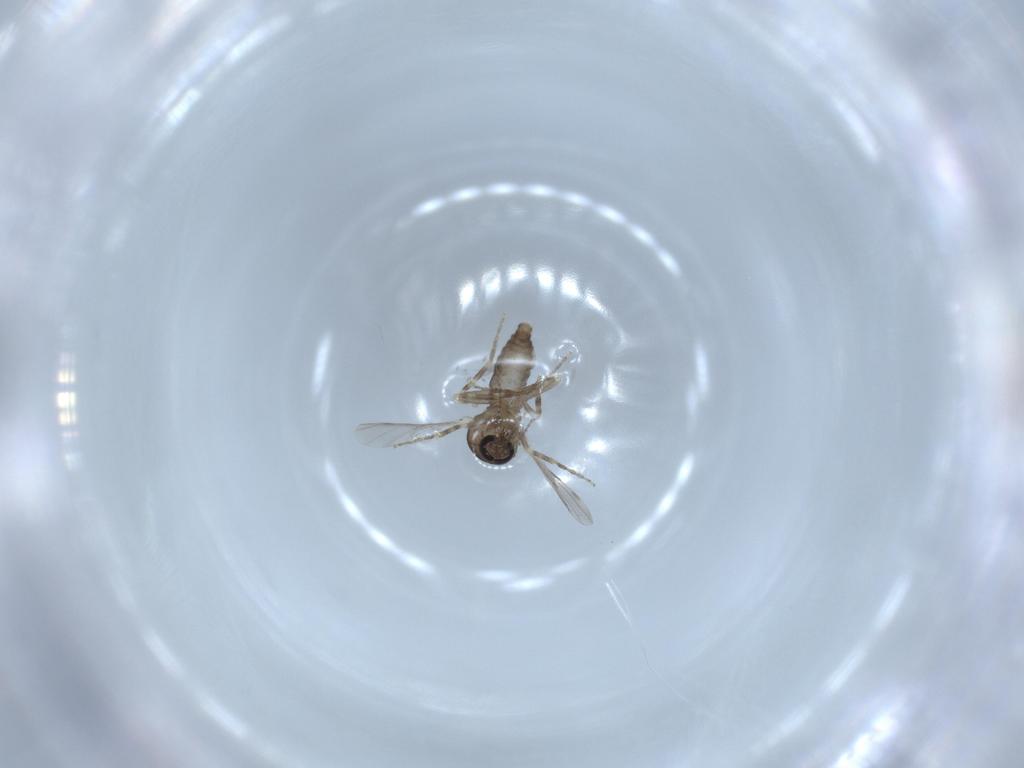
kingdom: Animalia
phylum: Arthropoda
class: Insecta
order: Diptera
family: Ceratopogonidae
